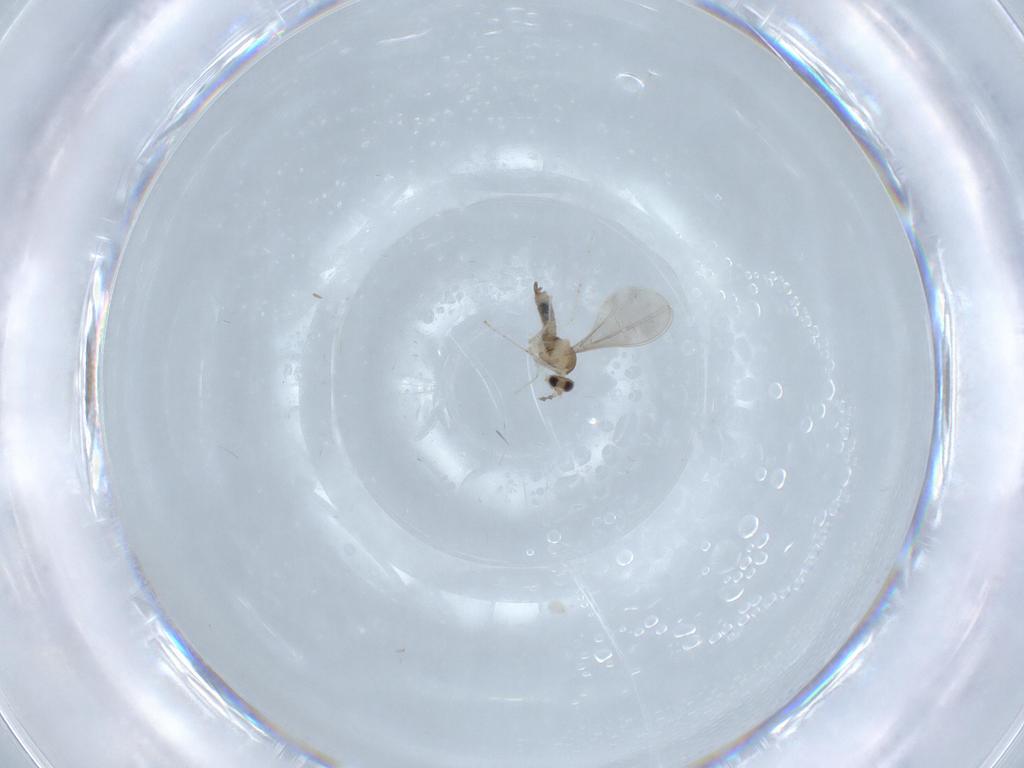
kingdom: Animalia
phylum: Arthropoda
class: Insecta
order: Diptera
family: Cecidomyiidae
